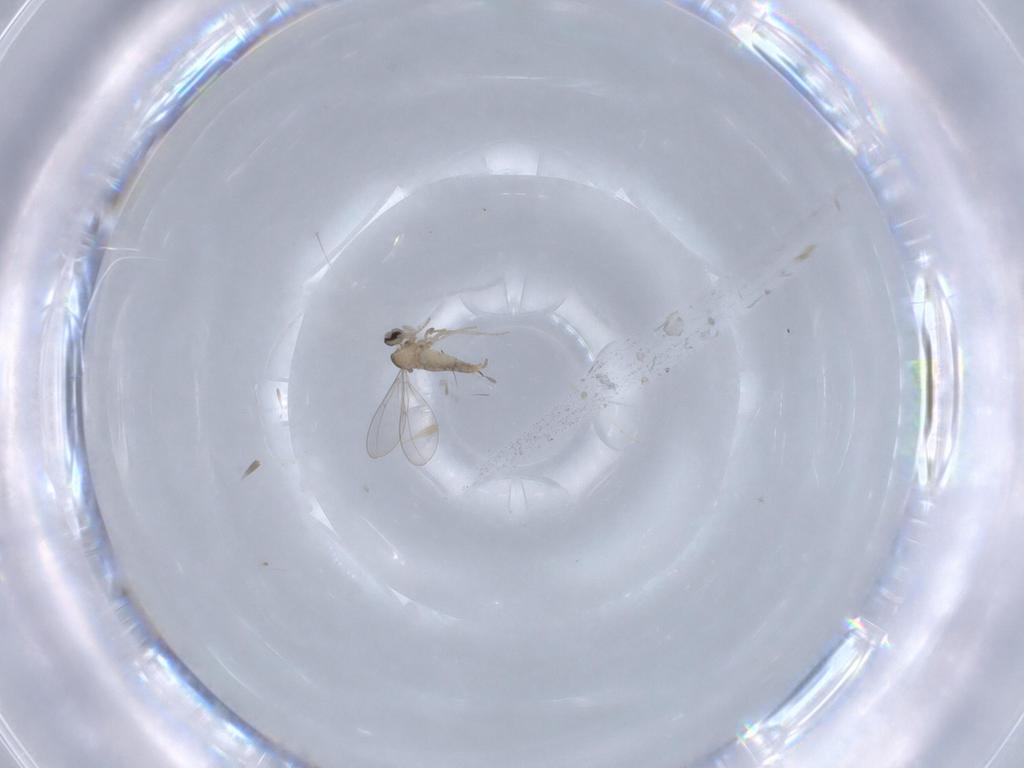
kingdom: Animalia
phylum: Arthropoda
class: Insecta
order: Diptera
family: Cecidomyiidae
